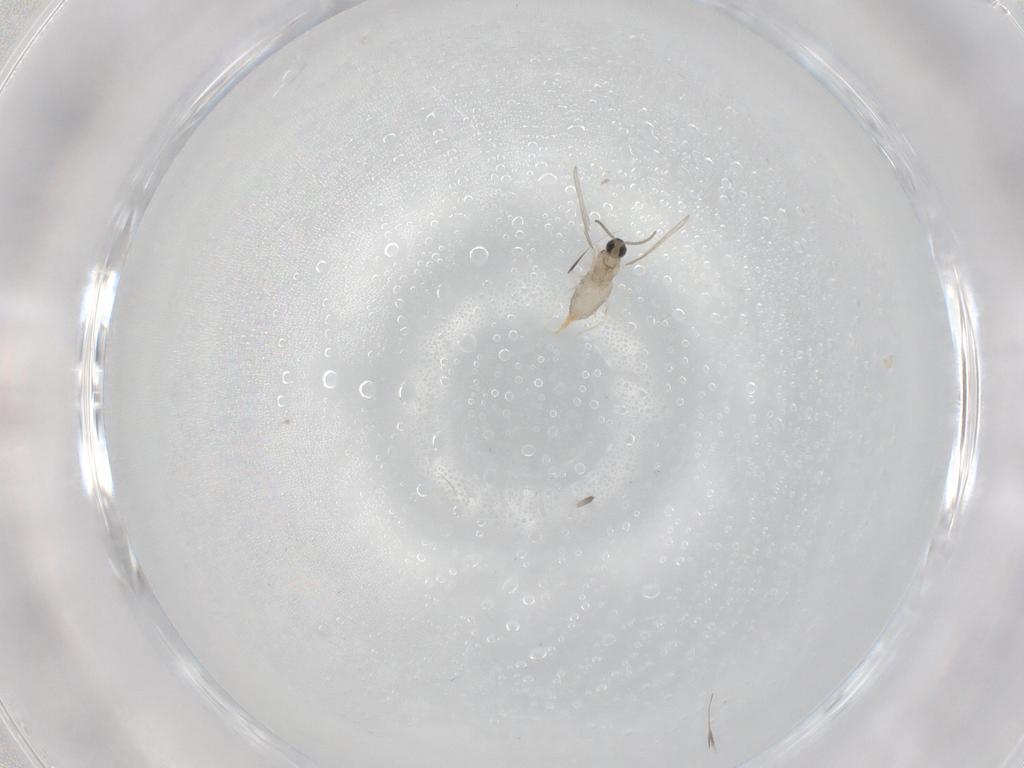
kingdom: Animalia
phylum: Arthropoda
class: Insecta
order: Diptera
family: Cecidomyiidae
